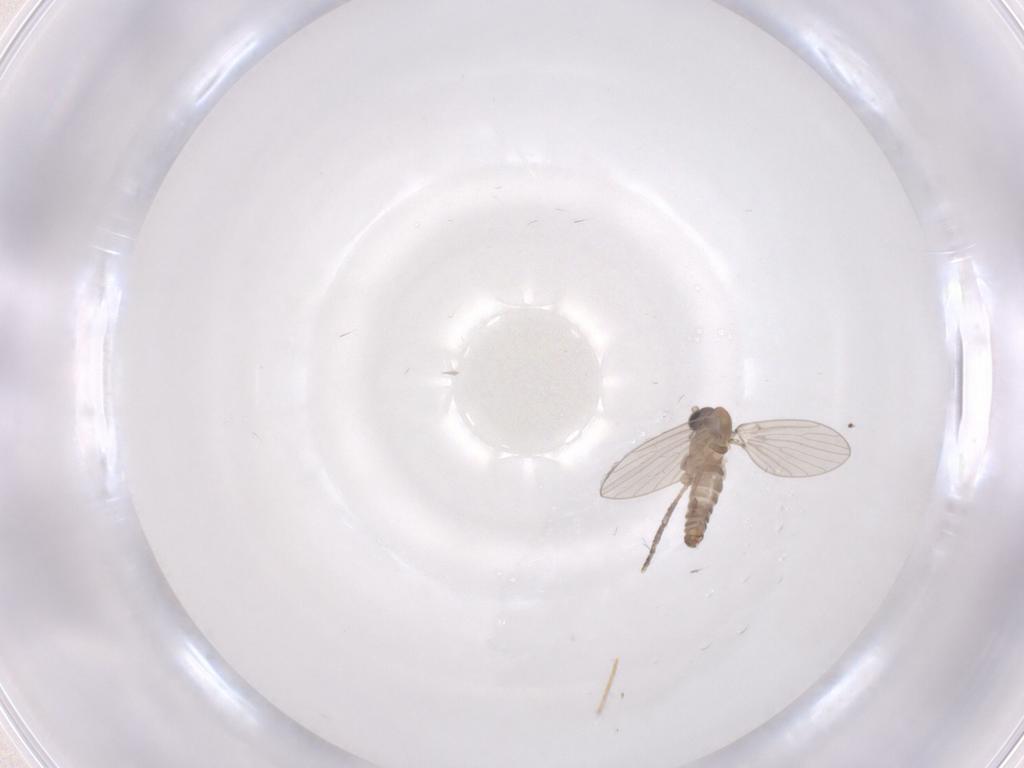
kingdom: Animalia
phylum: Arthropoda
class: Insecta
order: Diptera
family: Psychodidae
